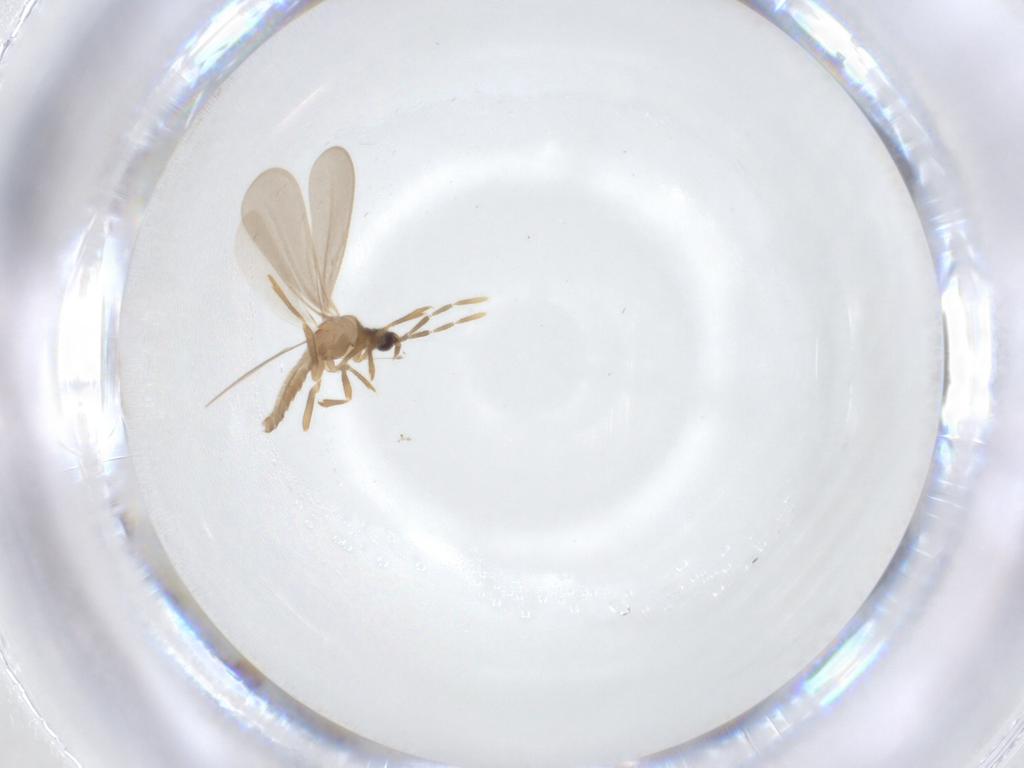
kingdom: Animalia
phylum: Arthropoda
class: Insecta
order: Hemiptera
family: Enicocephalidae
